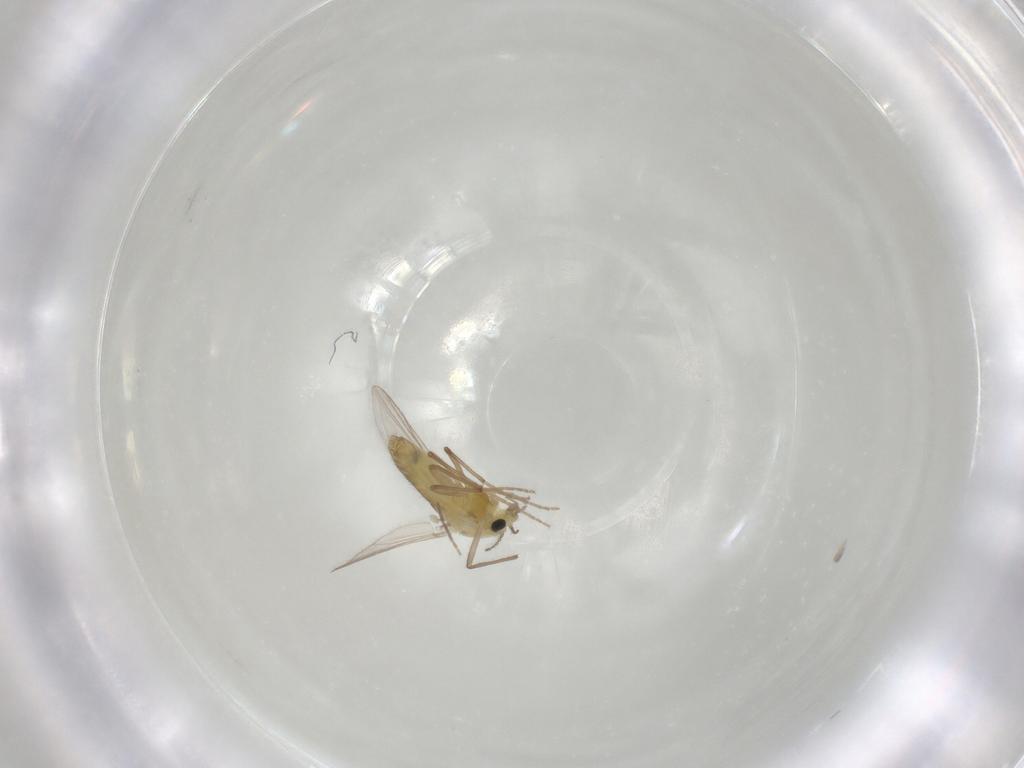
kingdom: Animalia
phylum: Arthropoda
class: Insecta
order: Diptera
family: Chironomidae
